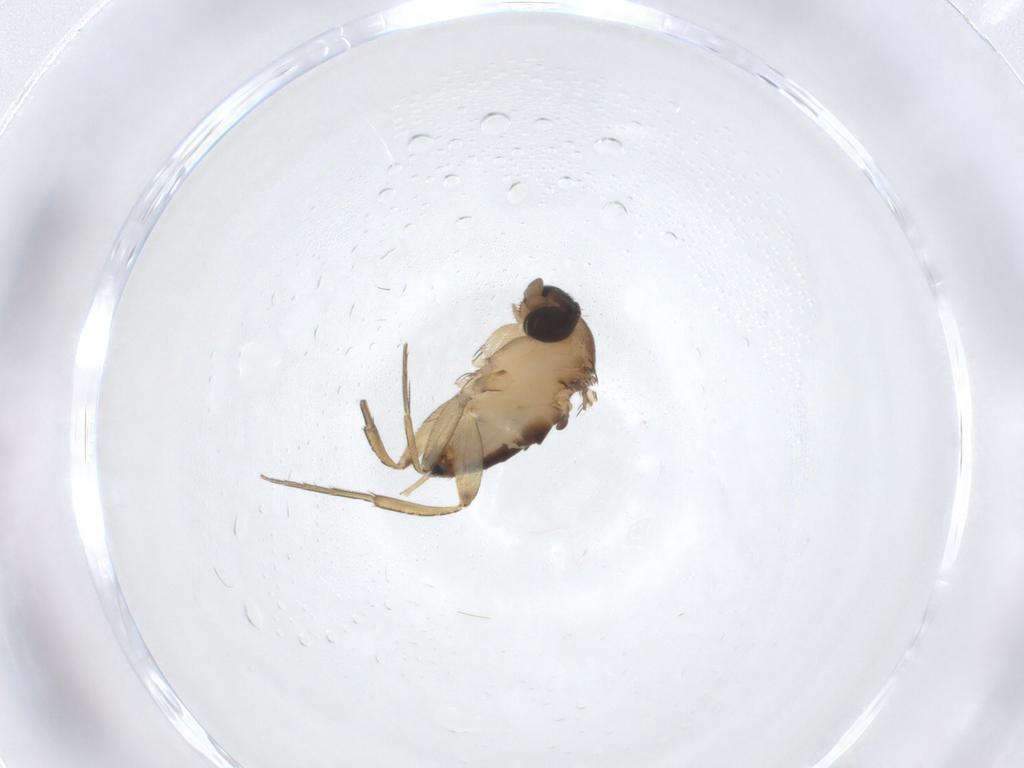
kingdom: Animalia
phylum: Arthropoda
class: Insecta
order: Diptera
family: Phoridae
